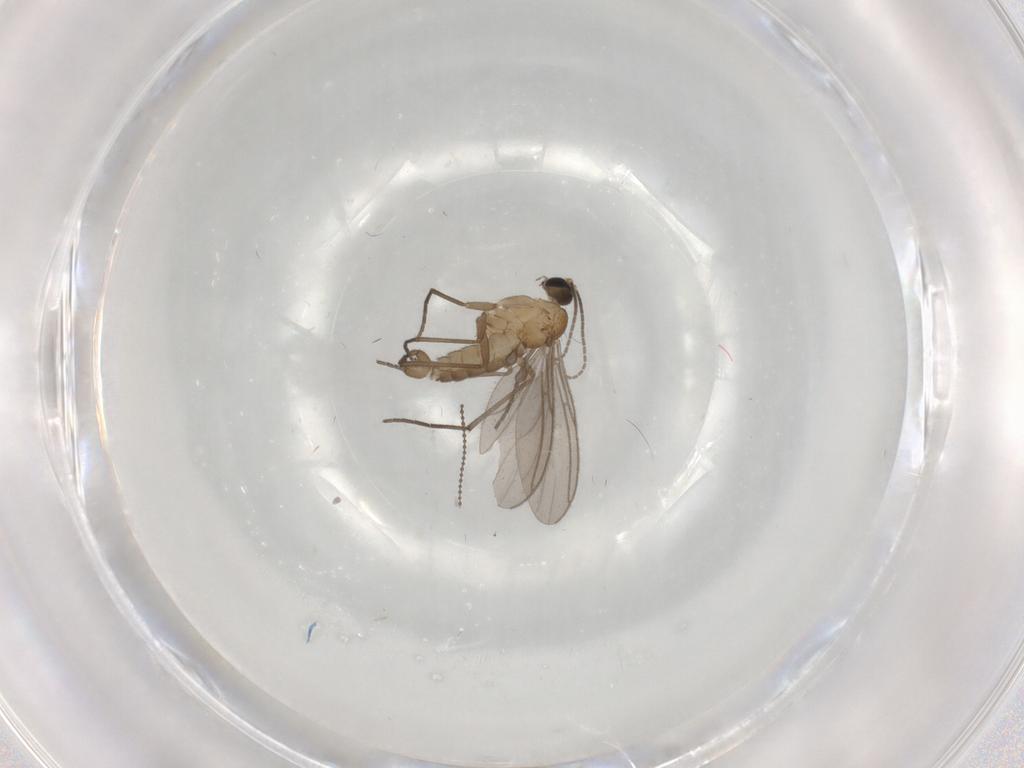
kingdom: Animalia
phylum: Arthropoda
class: Insecta
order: Diptera
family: Sciaridae
